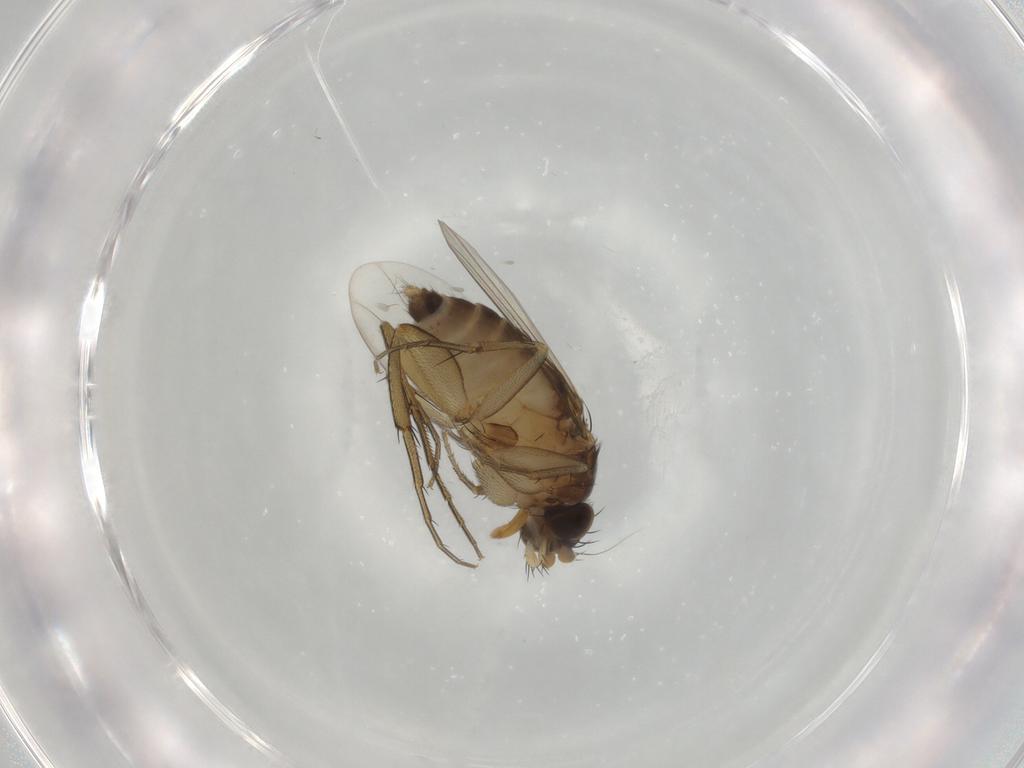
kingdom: Animalia
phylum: Arthropoda
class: Insecta
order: Diptera
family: Phoridae
